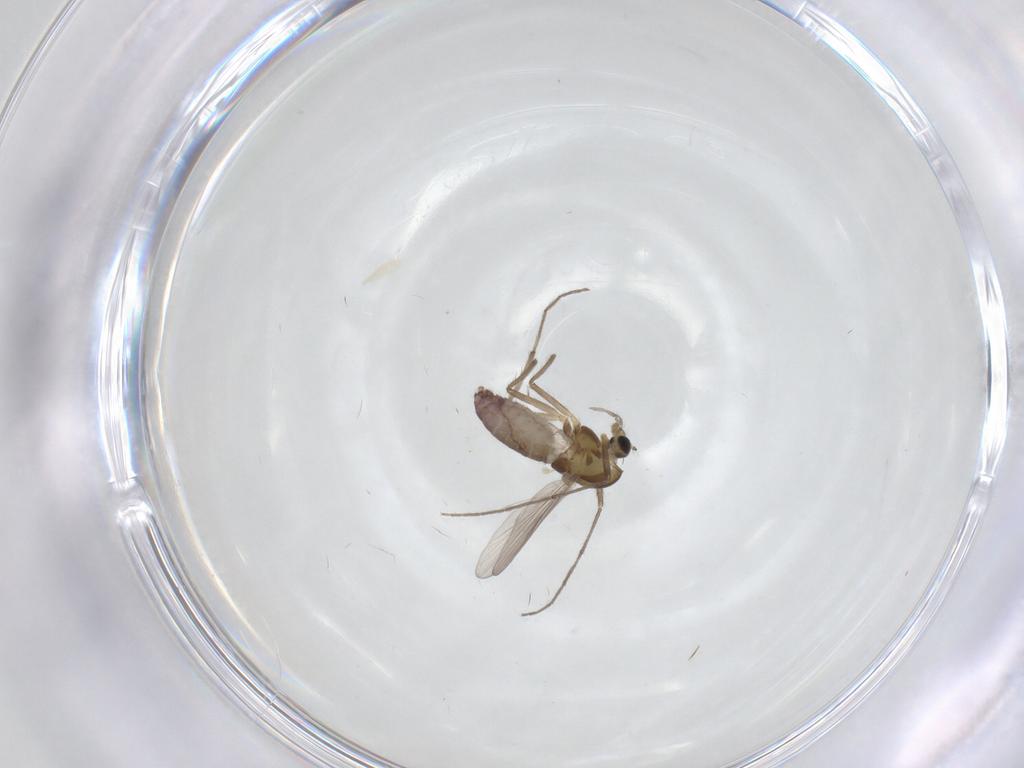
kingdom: Animalia
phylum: Arthropoda
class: Insecta
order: Diptera
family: Chironomidae
